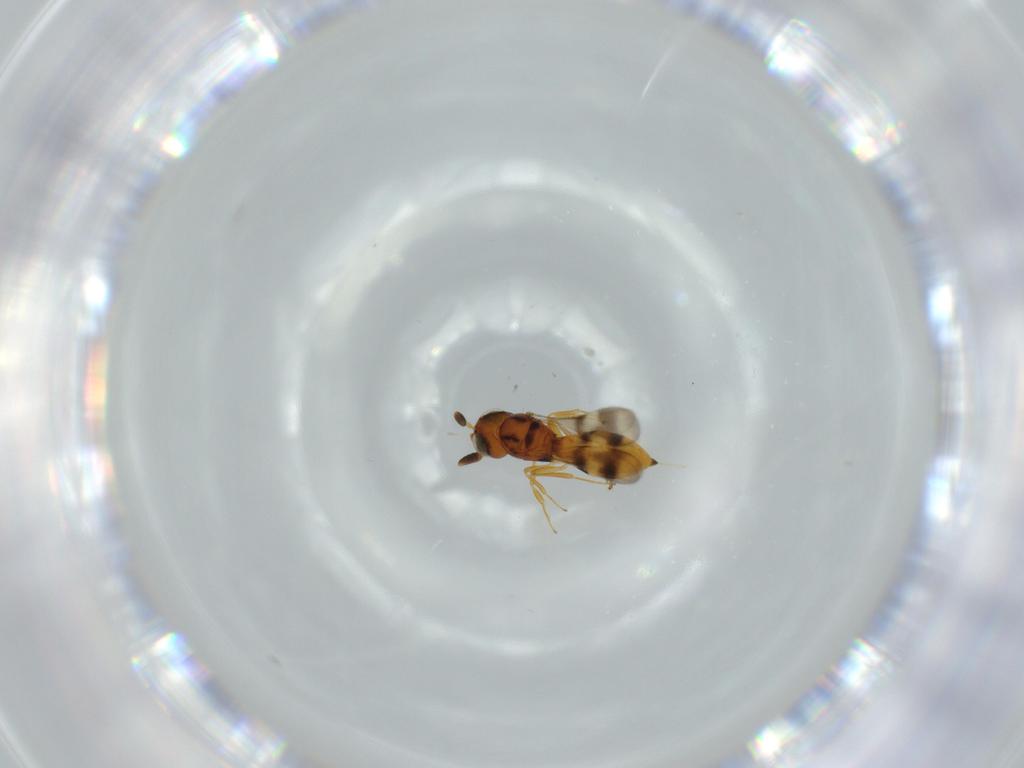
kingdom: Animalia
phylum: Arthropoda
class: Insecta
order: Hymenoptera
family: Scelionidae
